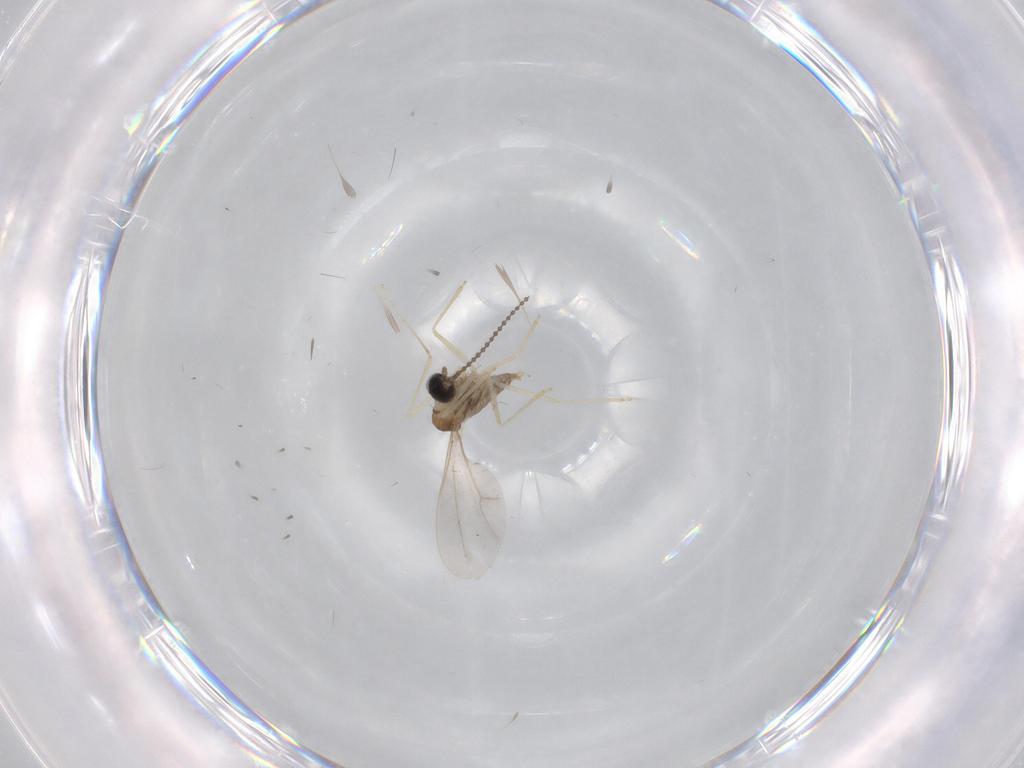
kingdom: Animalia
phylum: Arthropoda
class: Insecta
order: Diptera
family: Cecidomyiidae
